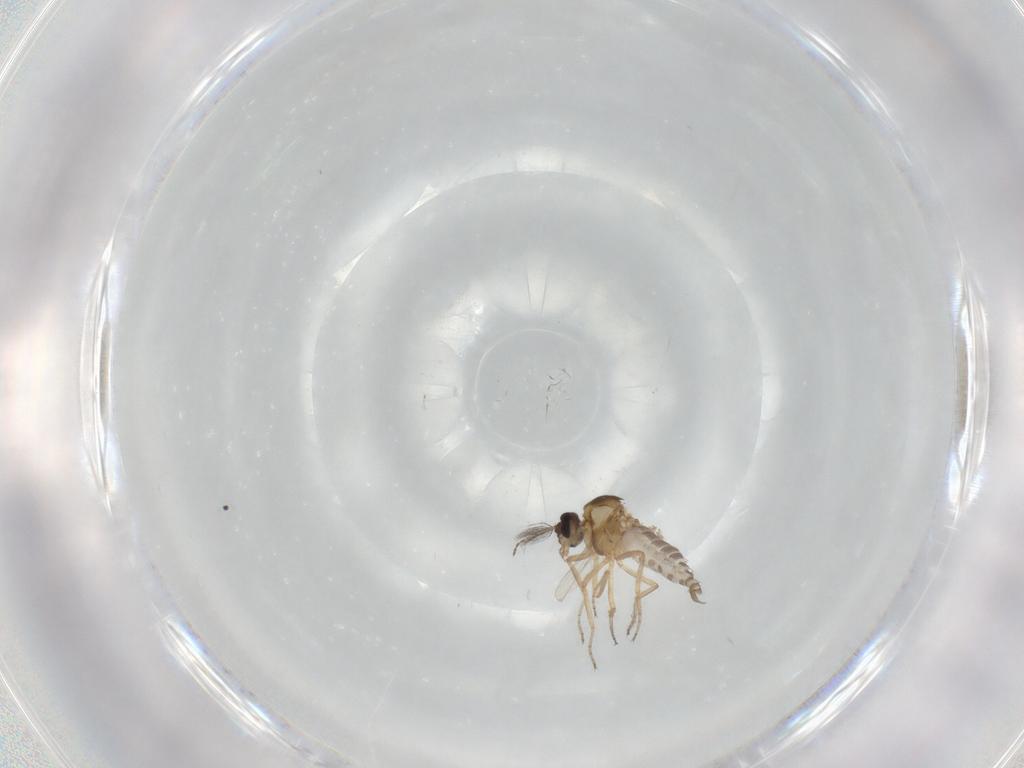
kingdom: Animalia
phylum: Arthropoda
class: Insecta
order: Diptera
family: Ceratopogonidae
